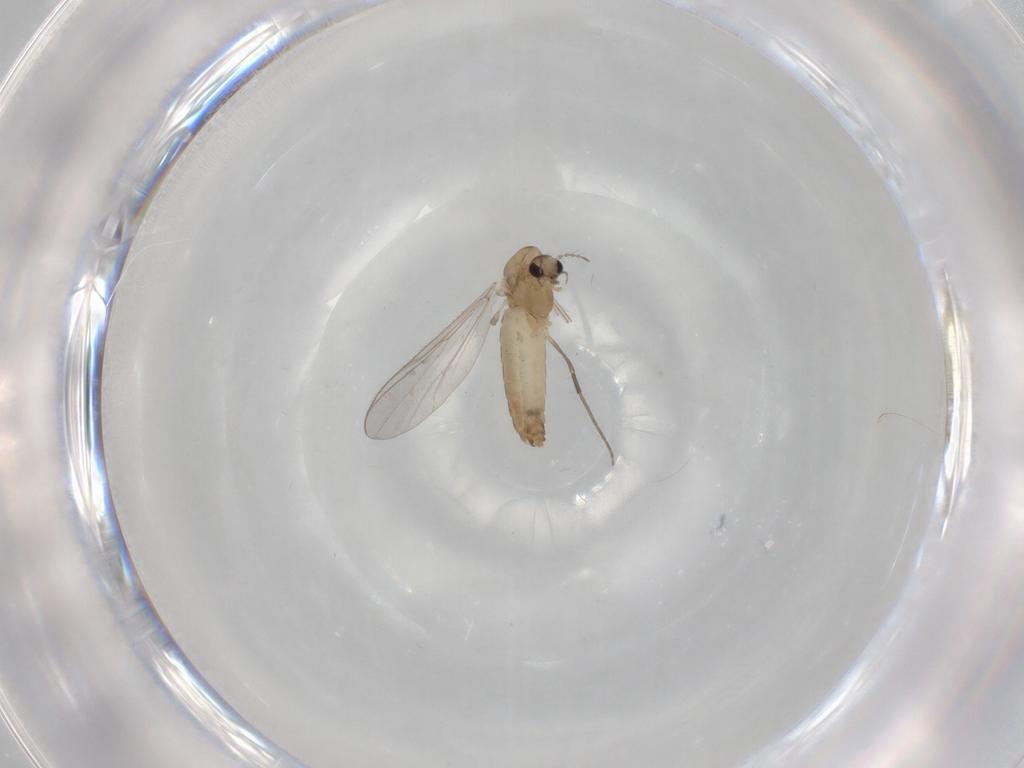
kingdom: Animalia
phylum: Arthropoda
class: Insecta
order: Diptera
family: Chironomidae
